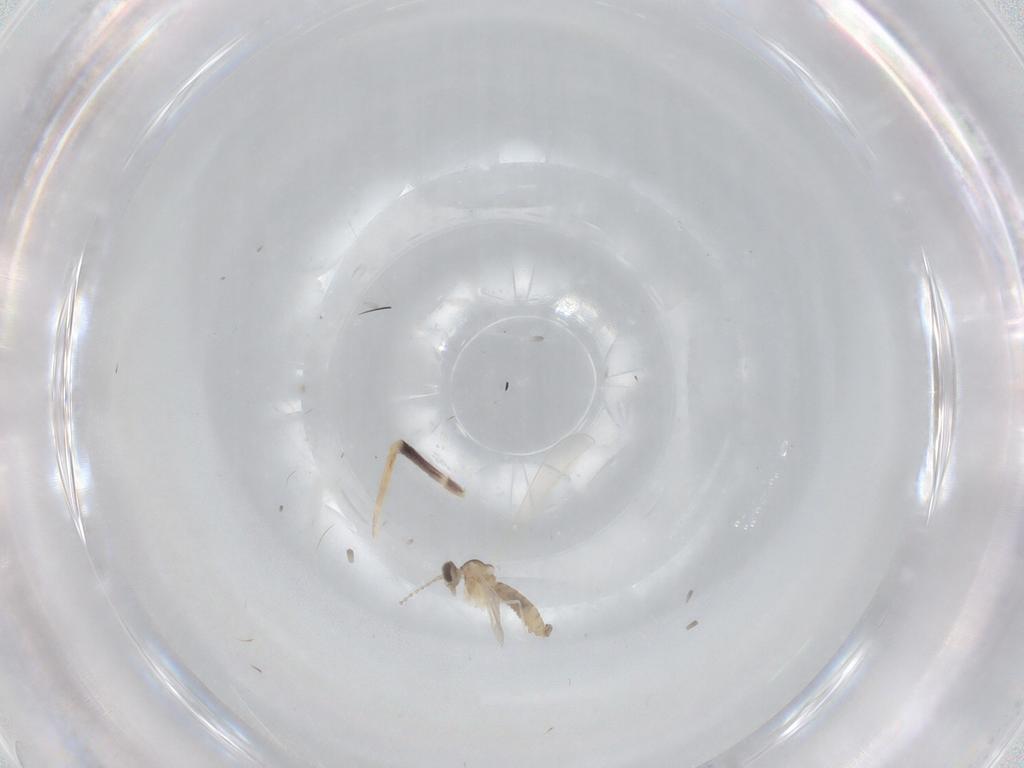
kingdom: Animalia
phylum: Arthropoda
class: Insecta
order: Diptera
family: Cecidomyiidae
